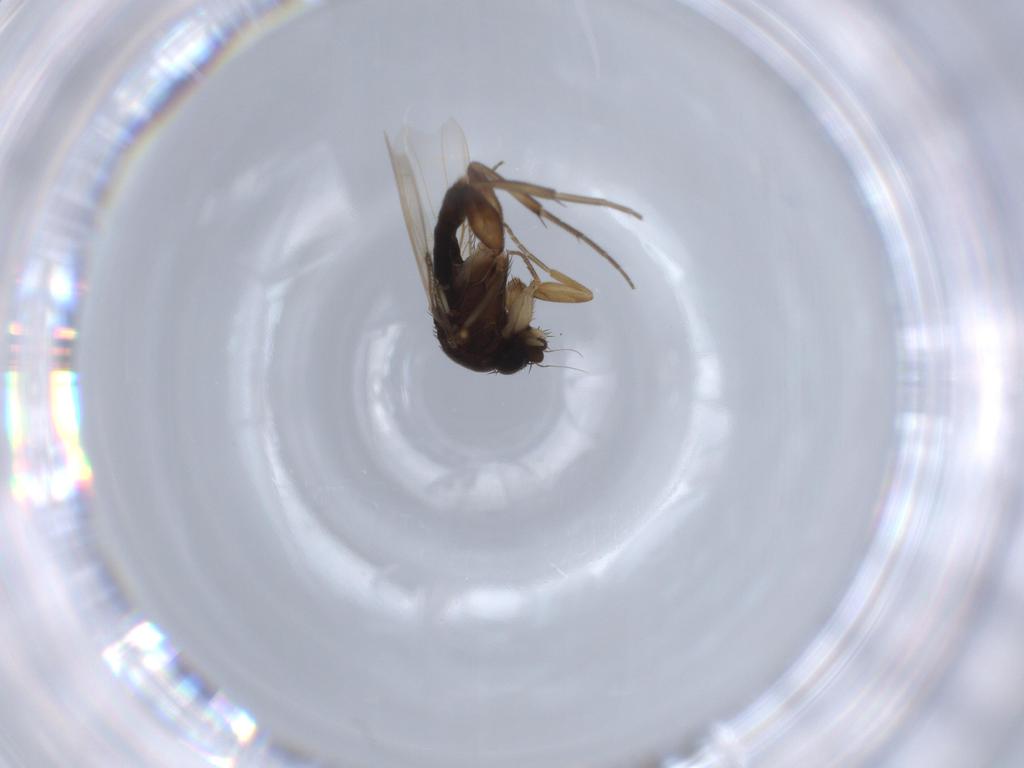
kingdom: Animalia
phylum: Arthropoda
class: Insecta
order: Diptera
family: Phoridae
